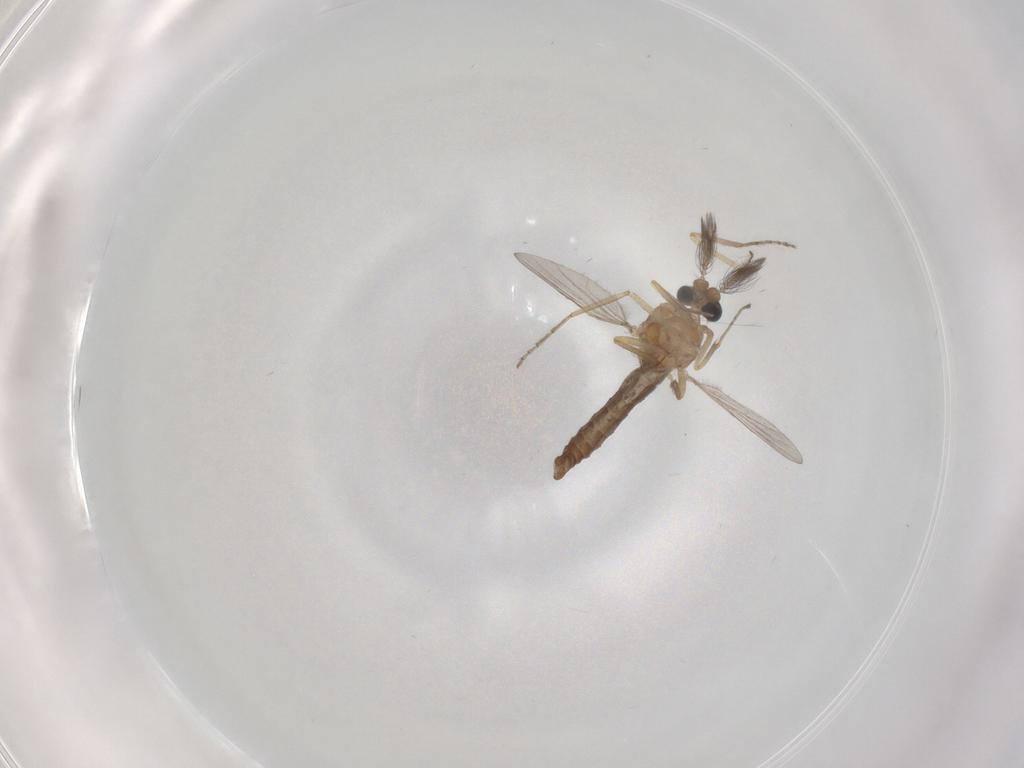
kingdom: Animalia
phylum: Arthropoda
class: Insecta
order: Diptera
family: Ceratopogonidae
